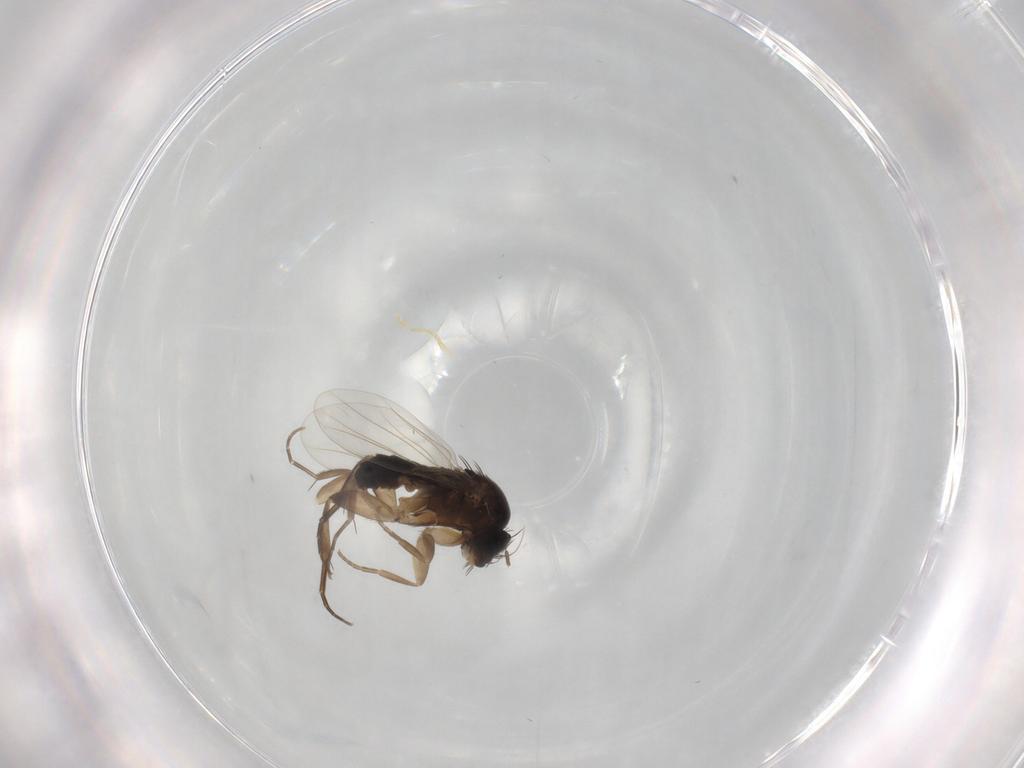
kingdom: Animalia
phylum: Arthropoda
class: Insecta
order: Diptera
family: Phoridae
